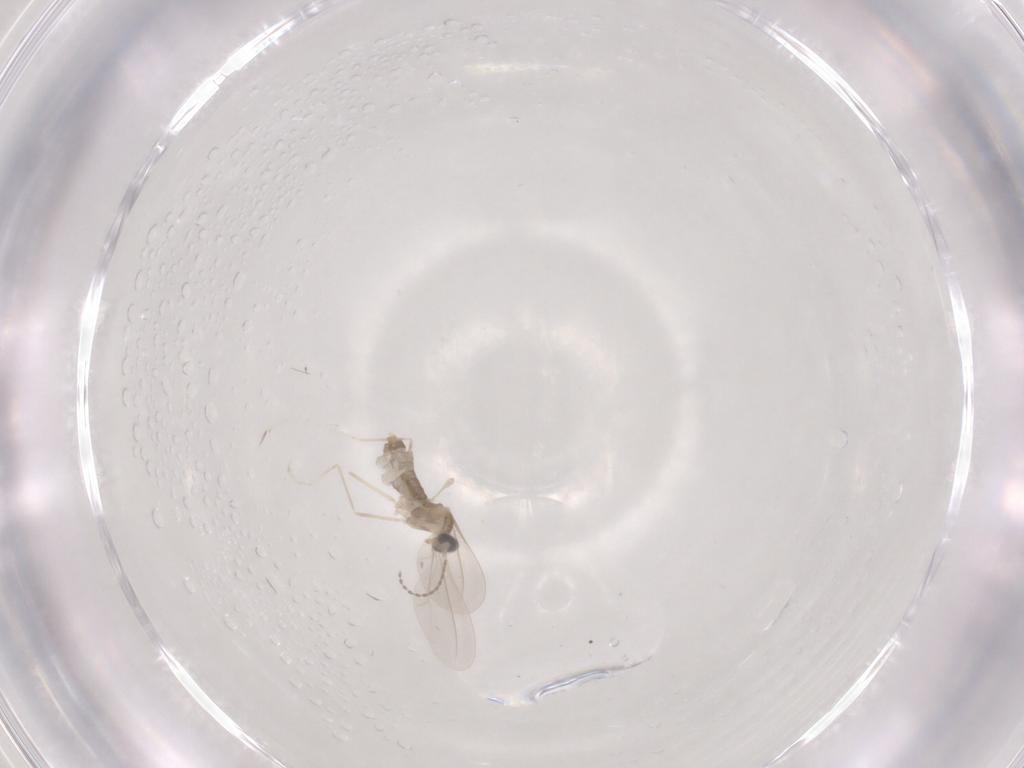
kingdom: Animalia
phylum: Arthropoda
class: Insecta
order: Diptera
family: Cecidomyiidae
